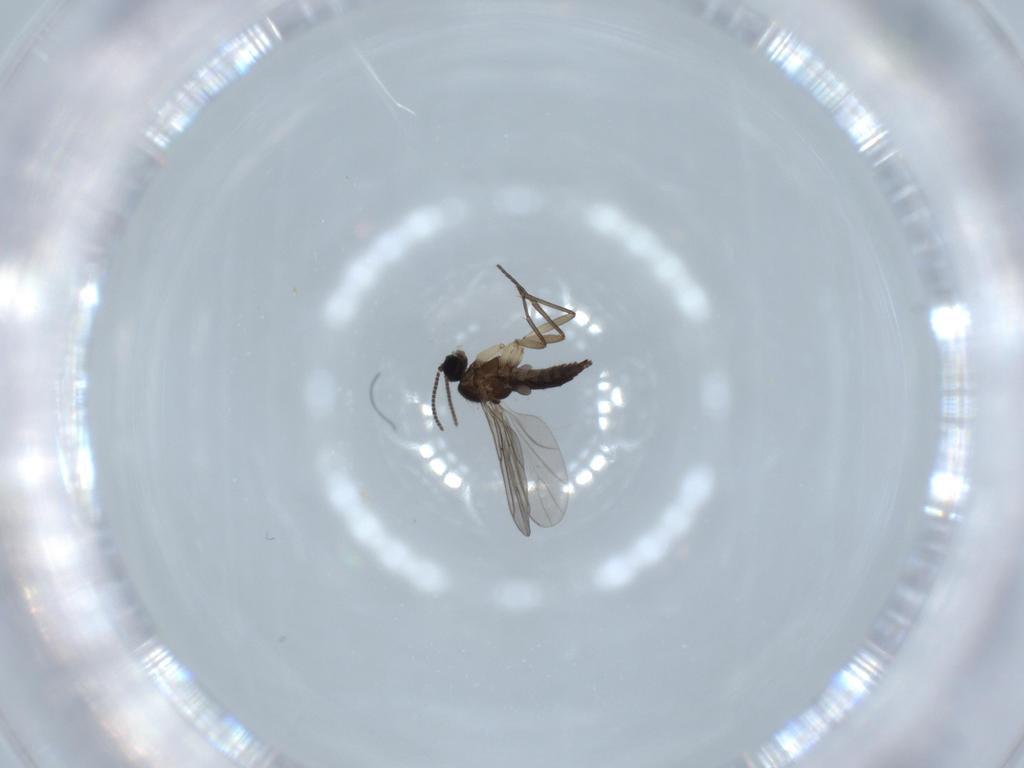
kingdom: Animalia
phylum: Arthropoda
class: Insecta
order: Diptera
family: Sciaridae
